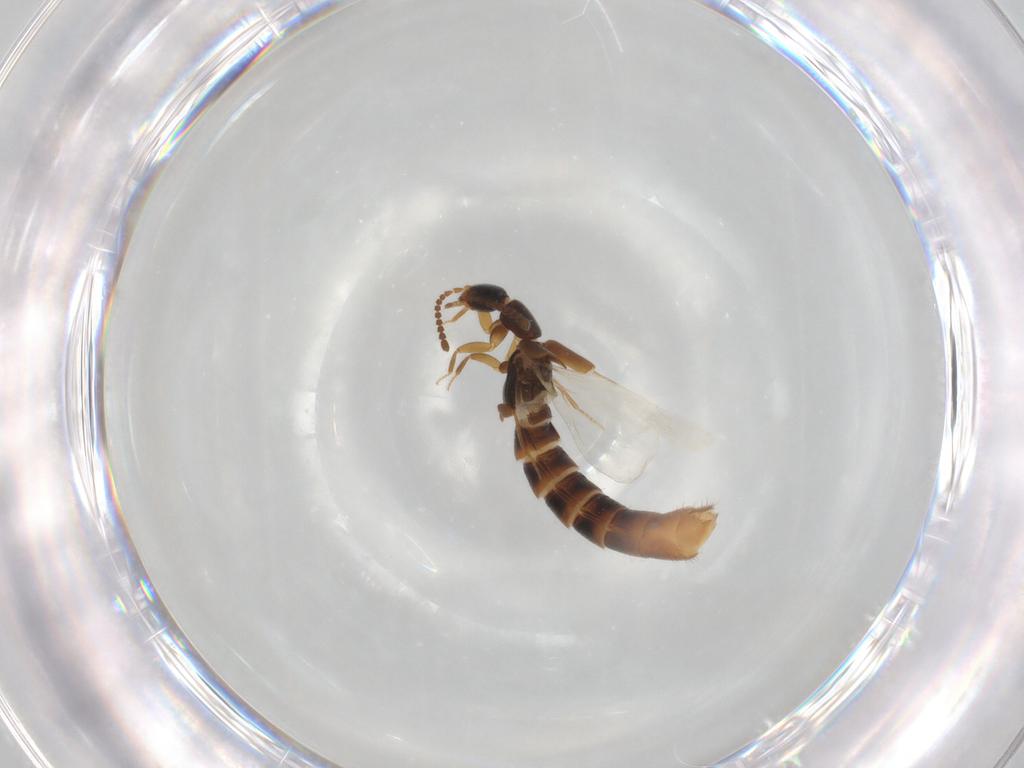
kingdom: Animalia
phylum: Arthropoda
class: Insecta
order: Coleoptera
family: Staphylinidae
